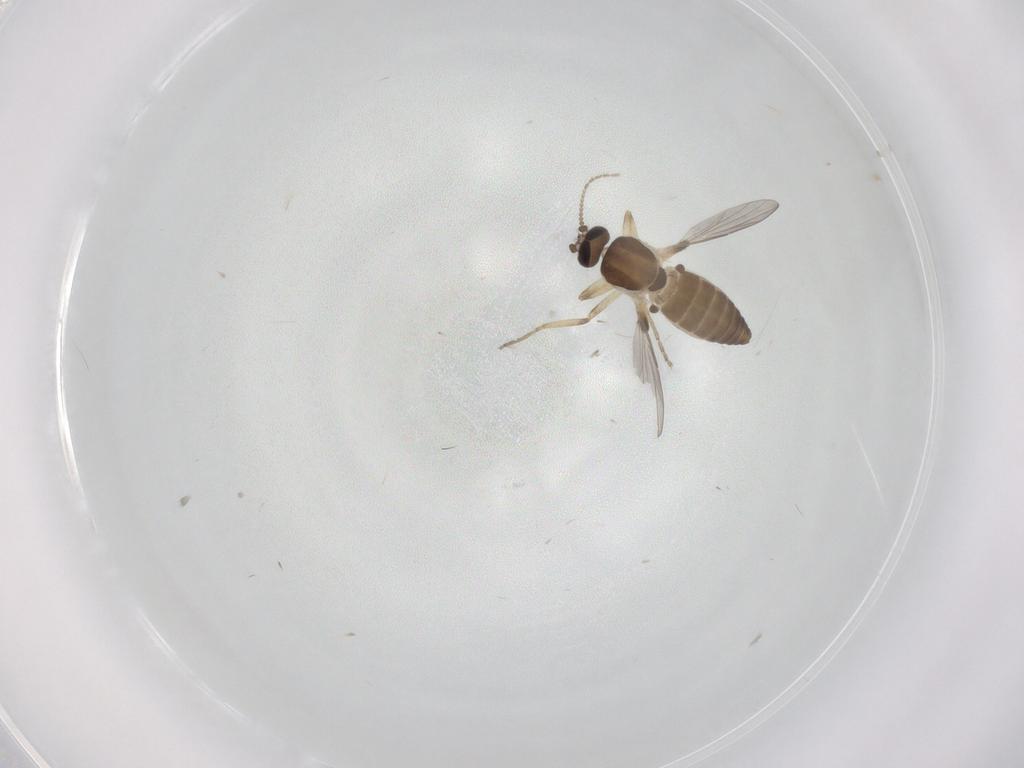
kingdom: Animalia
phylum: Arthropoda
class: Insecta
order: Diptera
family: Ceratopogonidae
